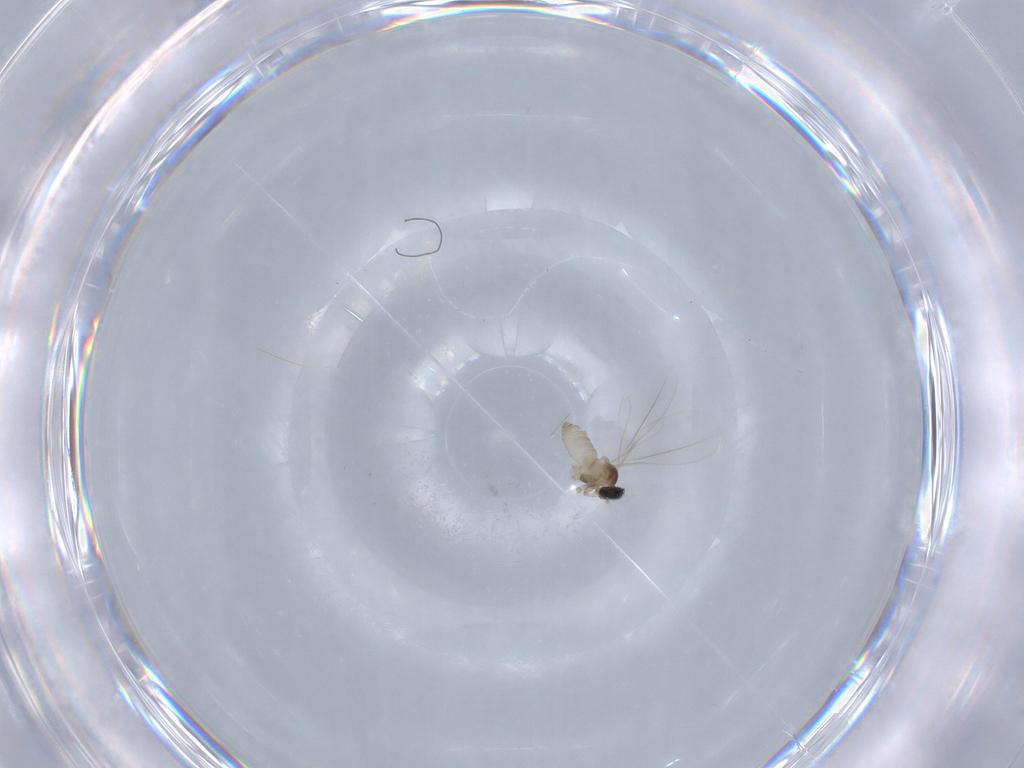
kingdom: Animalia
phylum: Arthropoda
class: Insecta
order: Diptera
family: Cecidomyiidae
